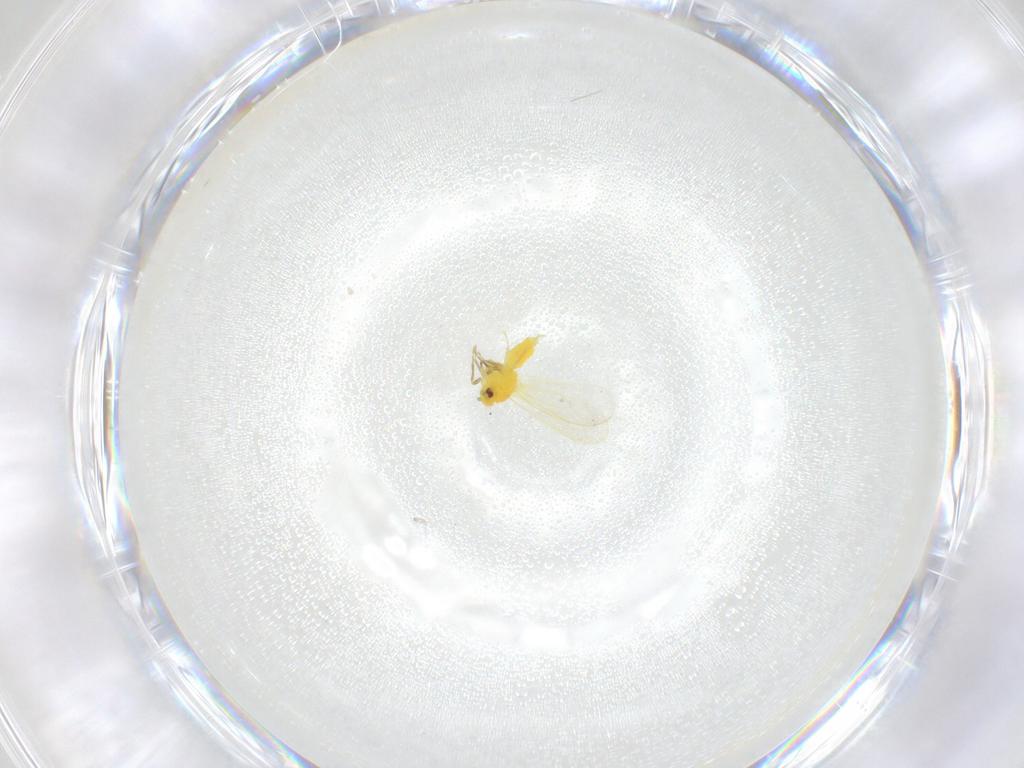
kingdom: Animalia
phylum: Arthropoda
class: Insecta
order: Hemiptera
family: Aleyrodidae
